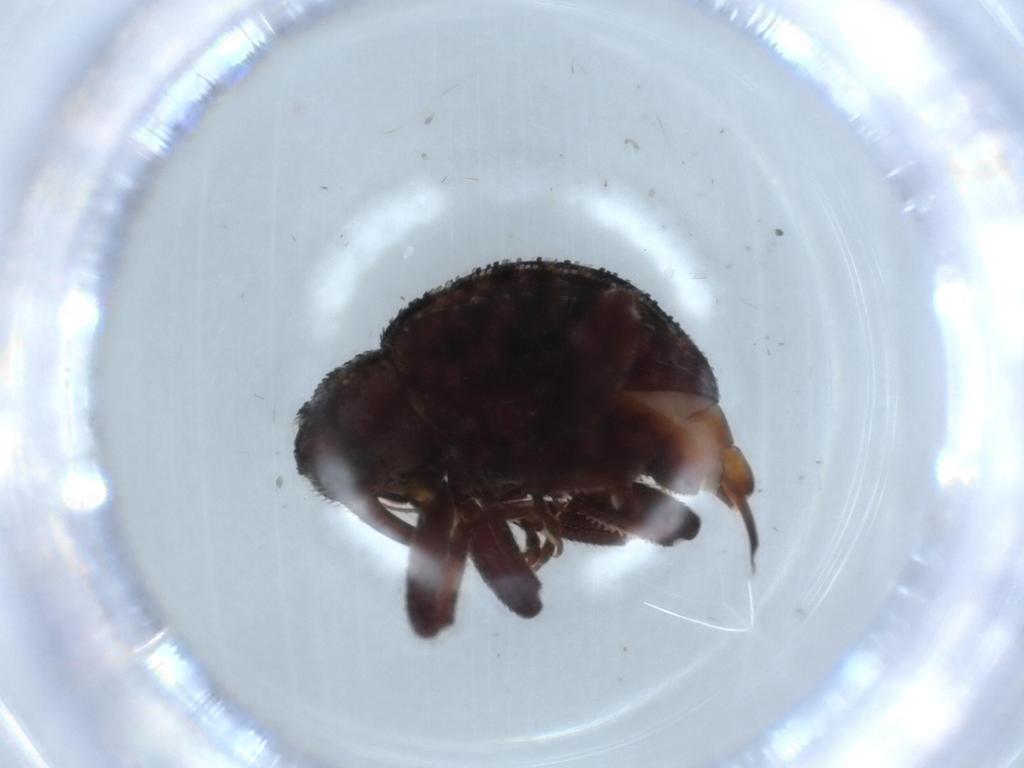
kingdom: Animalia
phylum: Arthropoda
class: Insecta
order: Coleoptera
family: Curculionidae
